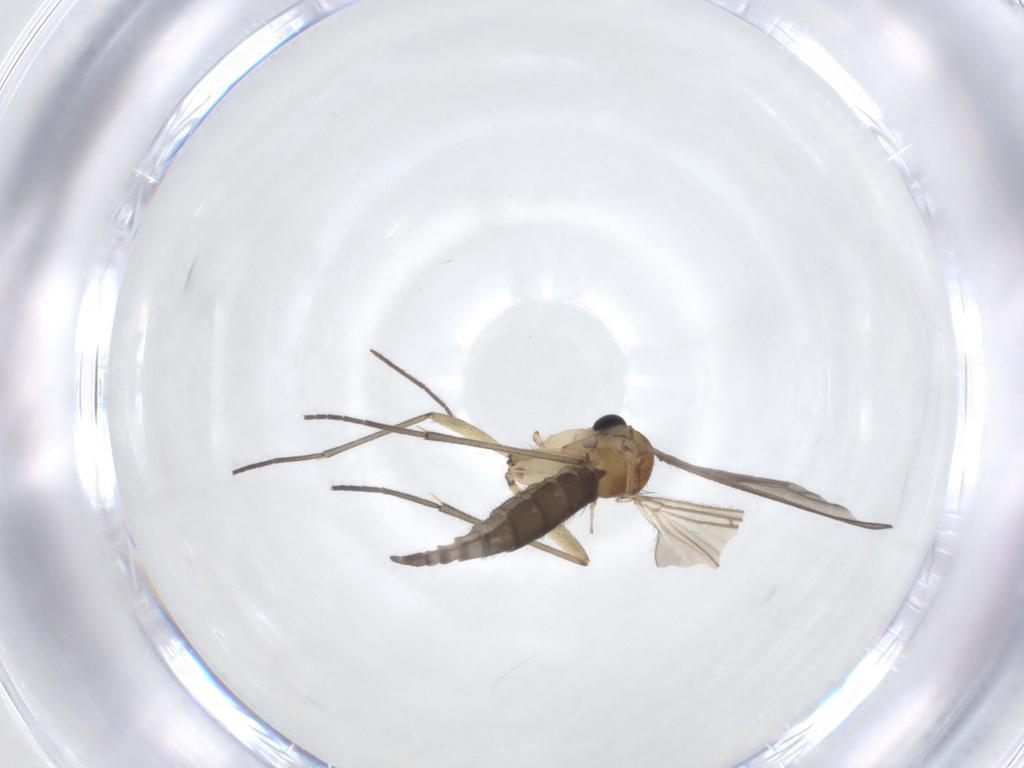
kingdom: Animalia
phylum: Arthropoda
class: Insecta
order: Diptera
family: Sciaridae
